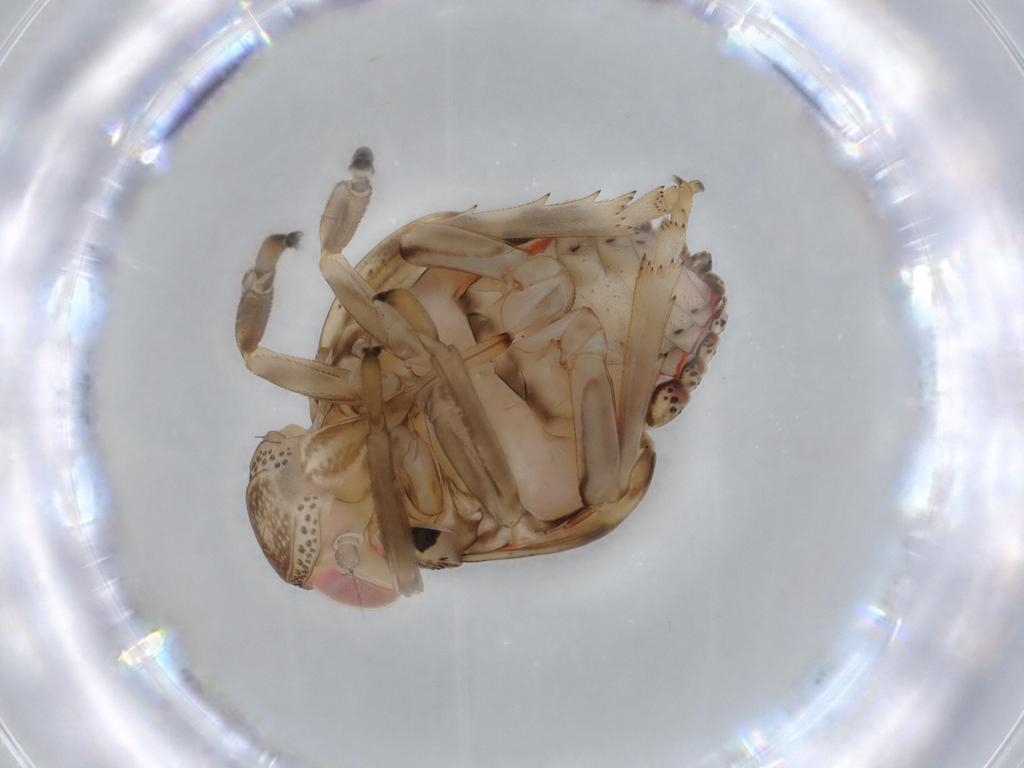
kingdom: Animalia
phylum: Arthropoda
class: Insecta
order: Hemiptera
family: Issidae
